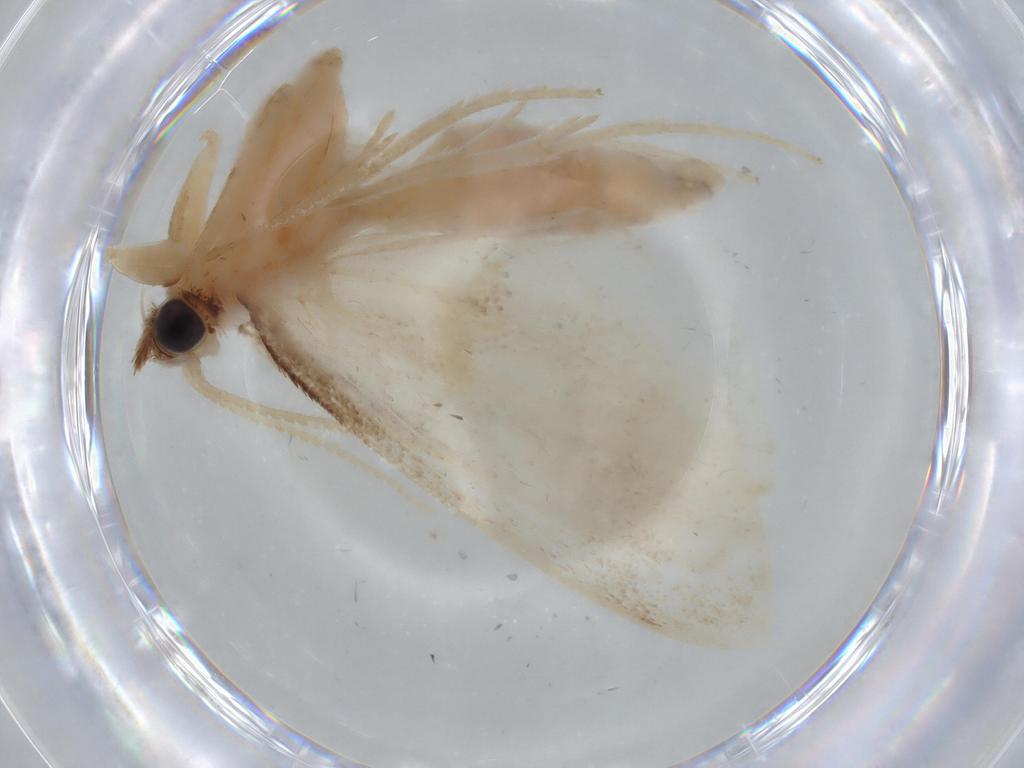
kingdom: Animalia
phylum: Arthropoda
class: Insecta
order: Lepidoptera
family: Crambidae
